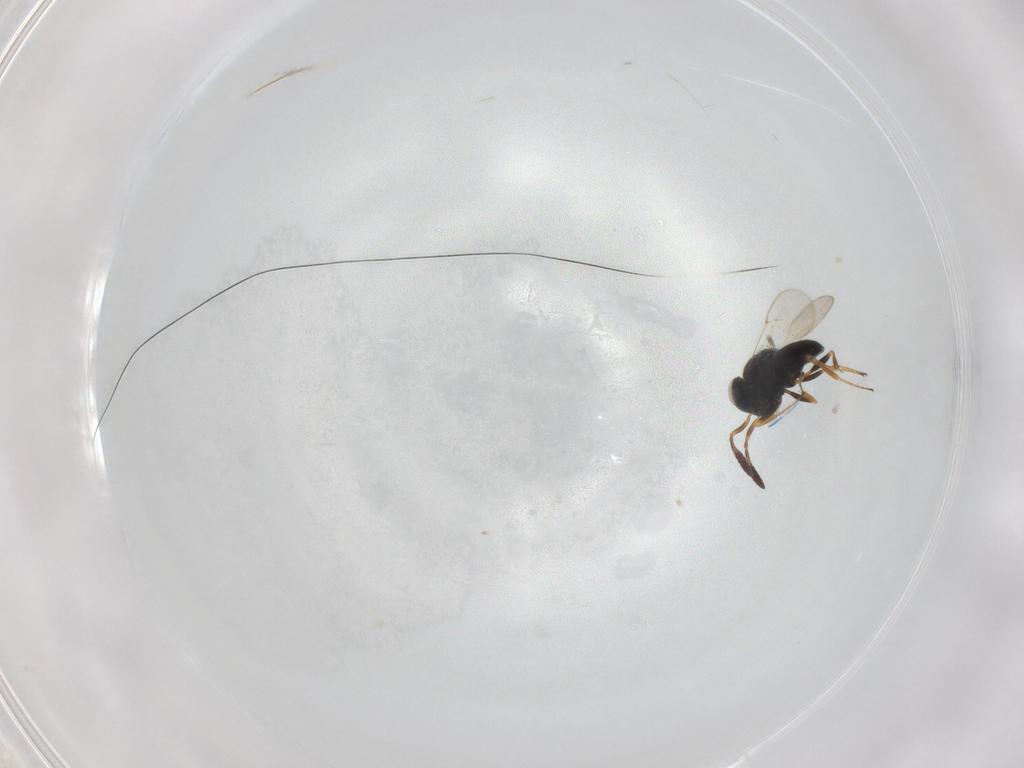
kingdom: Animalia
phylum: Arthropoda
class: Insecta
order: Coleoptera
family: Curculionidae
